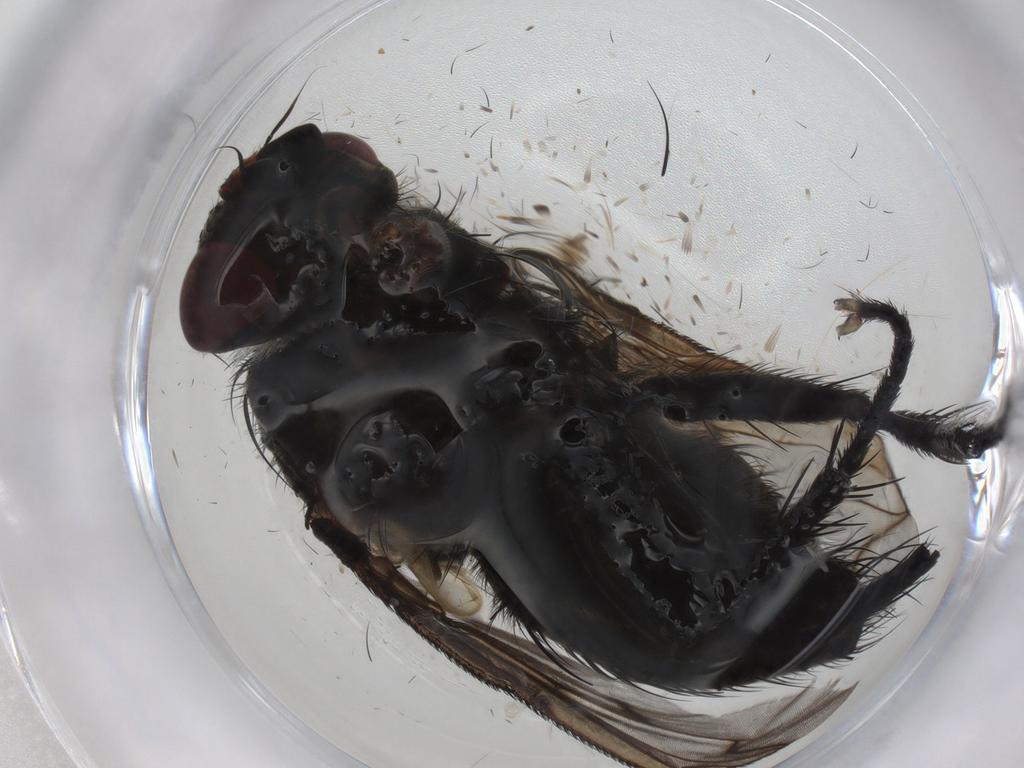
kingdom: Animalia
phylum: Arthropoda
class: Insecta
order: Diptera
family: Tachinidae
